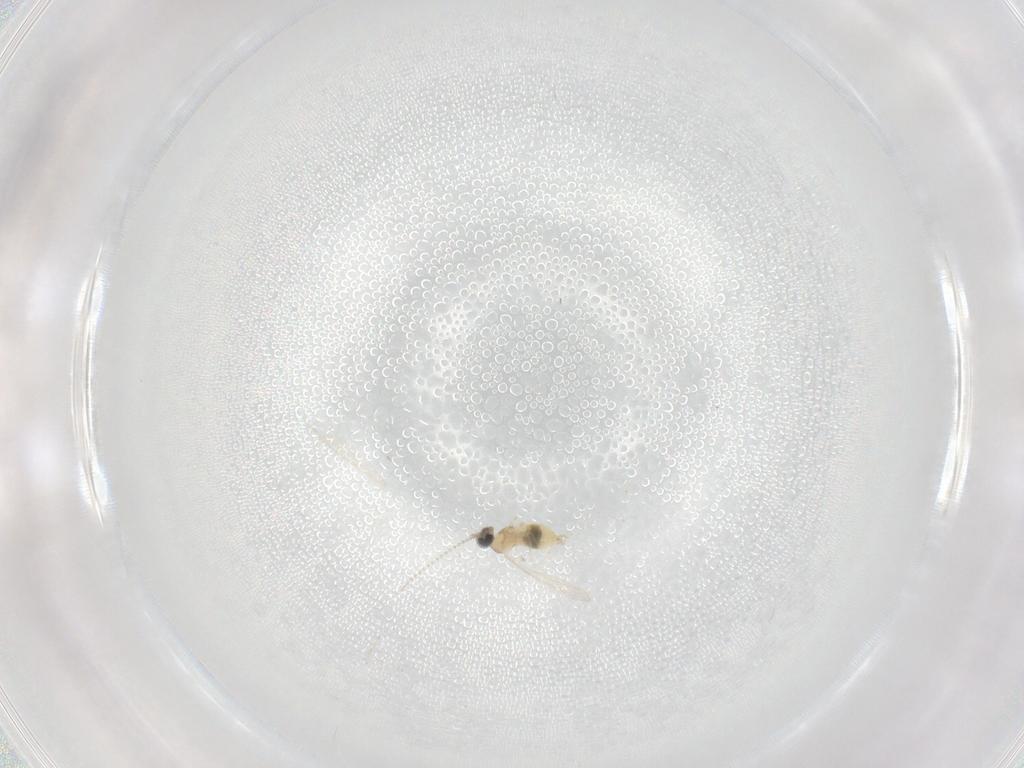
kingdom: Animalia
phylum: Arthropoda
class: Insecta
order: Diptera
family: Cecidomyiidae
